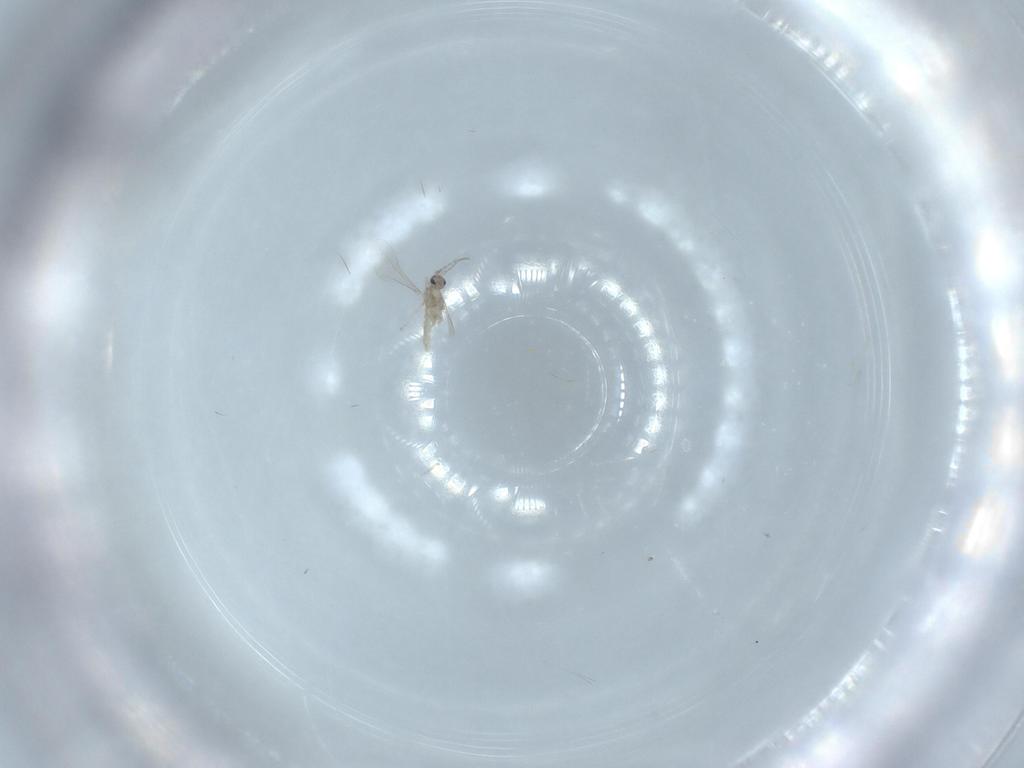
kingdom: Animalia
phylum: Arthropoda
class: Insecta
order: Diptera
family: Cecidomyiidae
